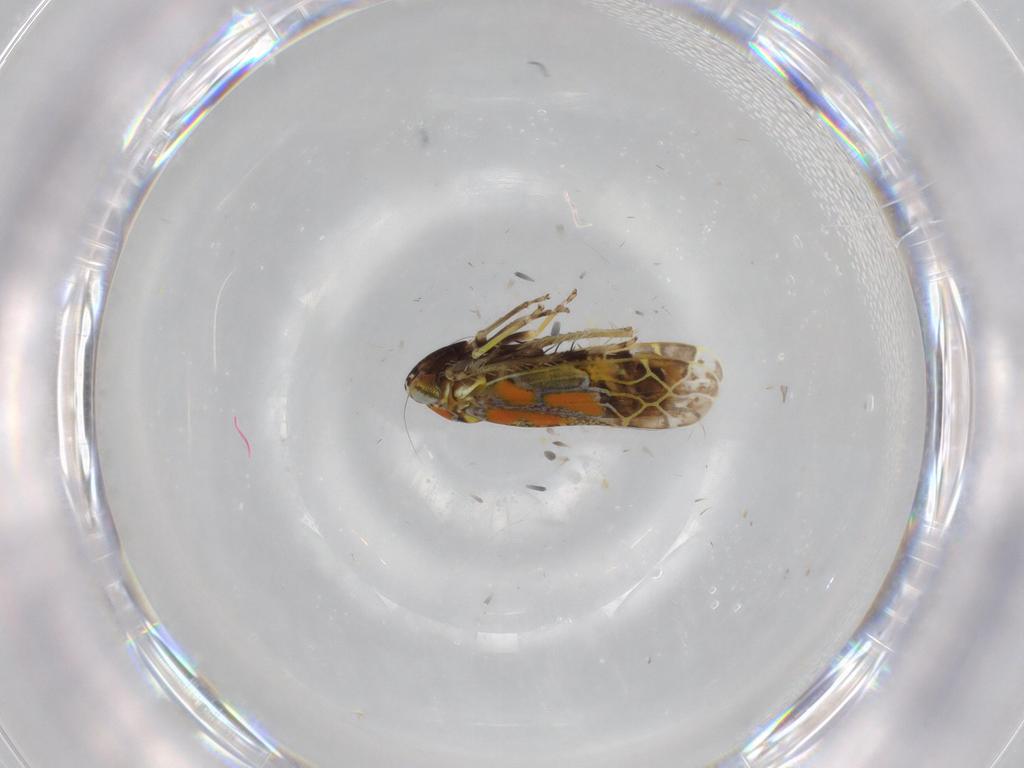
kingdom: Animalia
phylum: Arthropoda
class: Insecta
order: Hemiptera
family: Cicadellidae
